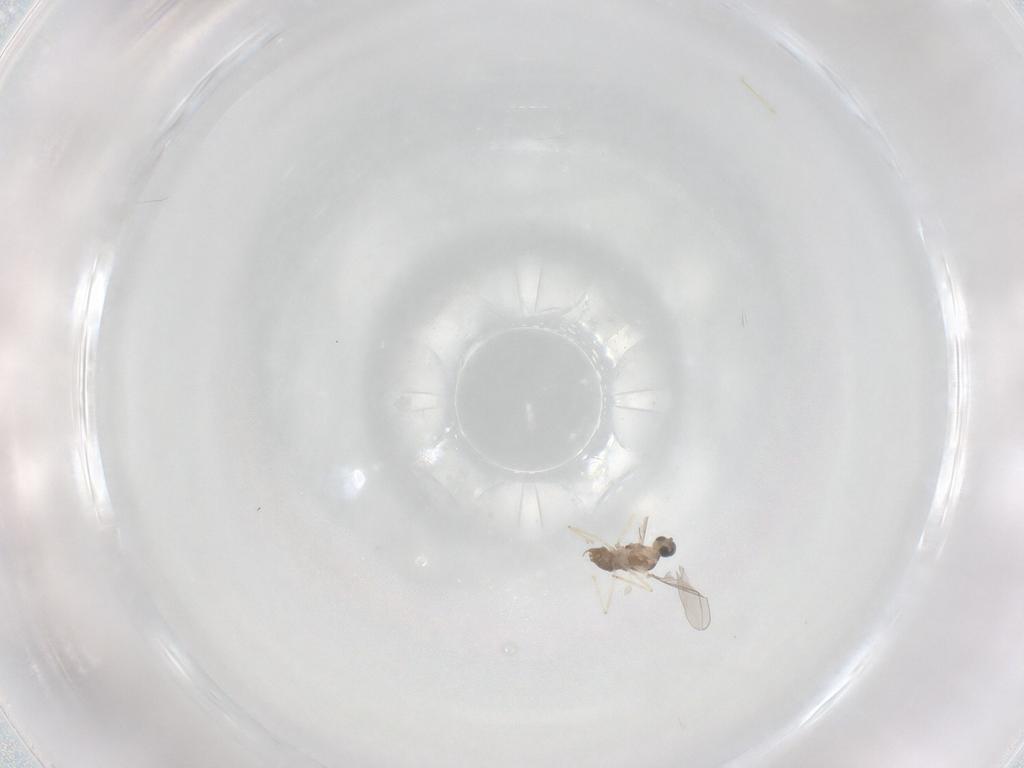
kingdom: Animalia
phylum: Arthropoda
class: Insecta
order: Diptera
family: Cecidomyiidae
